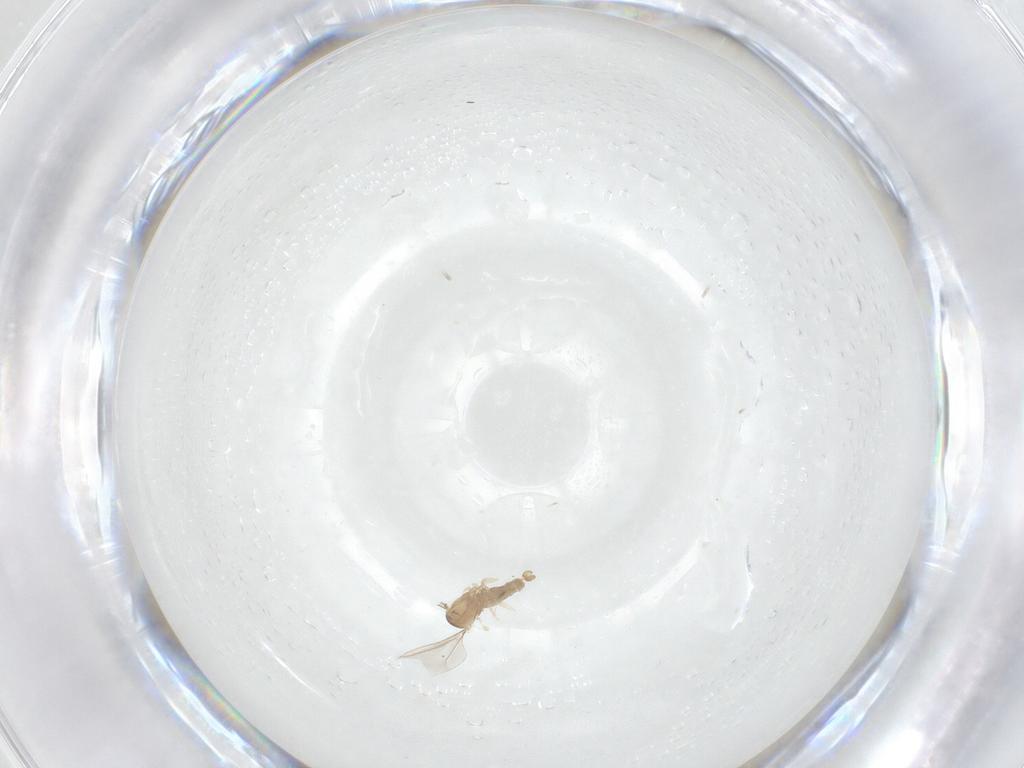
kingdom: Animalia
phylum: Arthropoda
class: Insecta
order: Diptera
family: Cecidomyiidae
